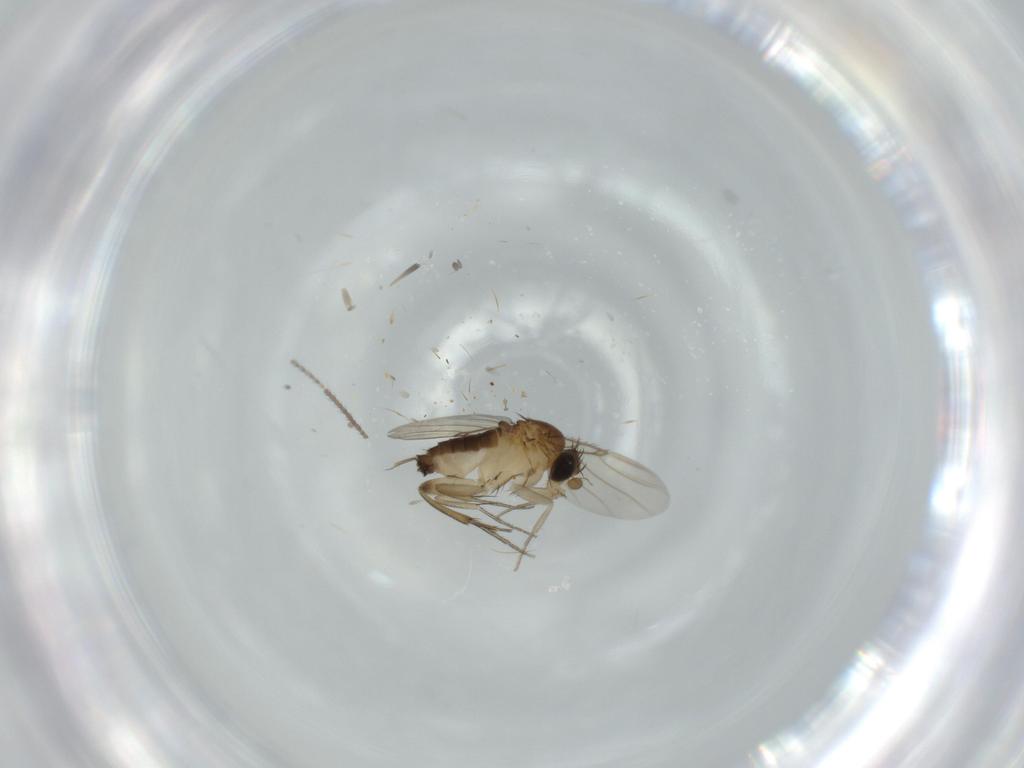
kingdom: Animalia
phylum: Arthropoda
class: Insecta
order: Diptera
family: Phoridae
